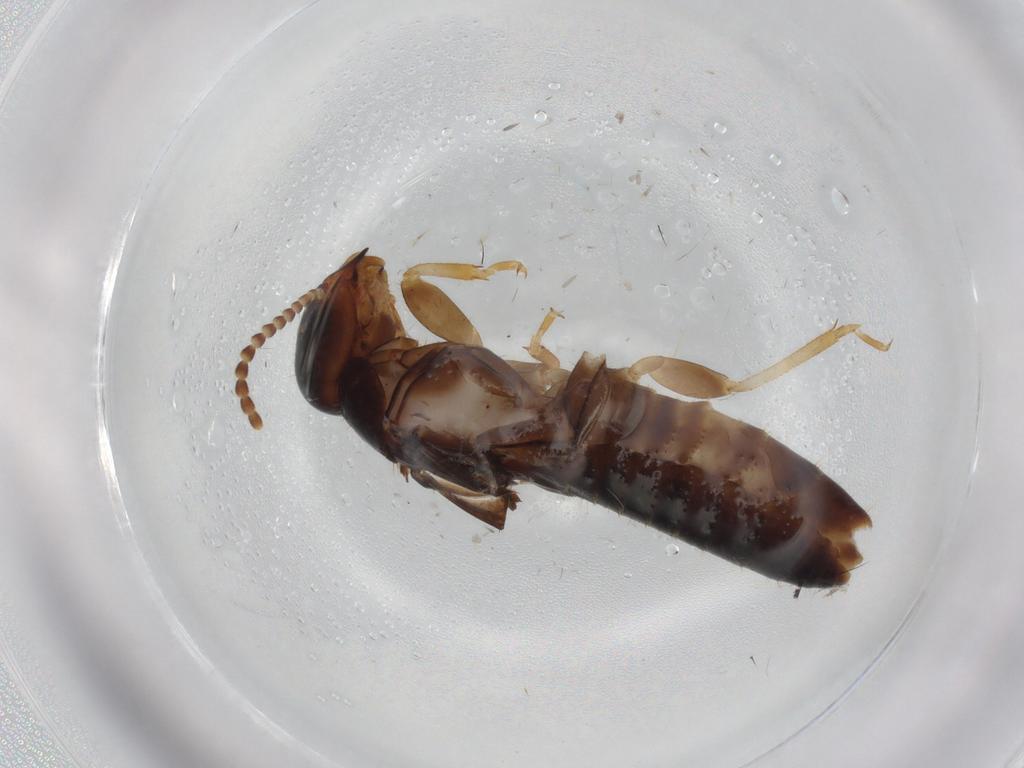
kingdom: Animalia
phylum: Arthropoda
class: Insecta
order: Blattodea
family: Kalotermitidae
